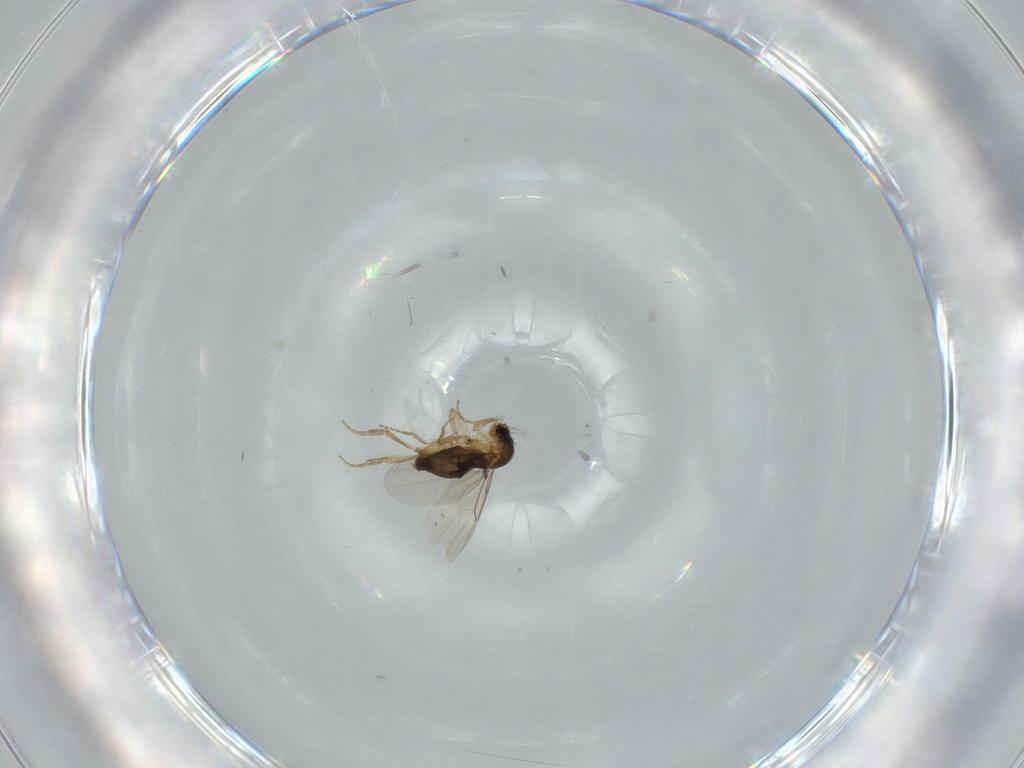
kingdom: Animalia
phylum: Arthropoda
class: Insecta
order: Diptera
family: Phoridae
